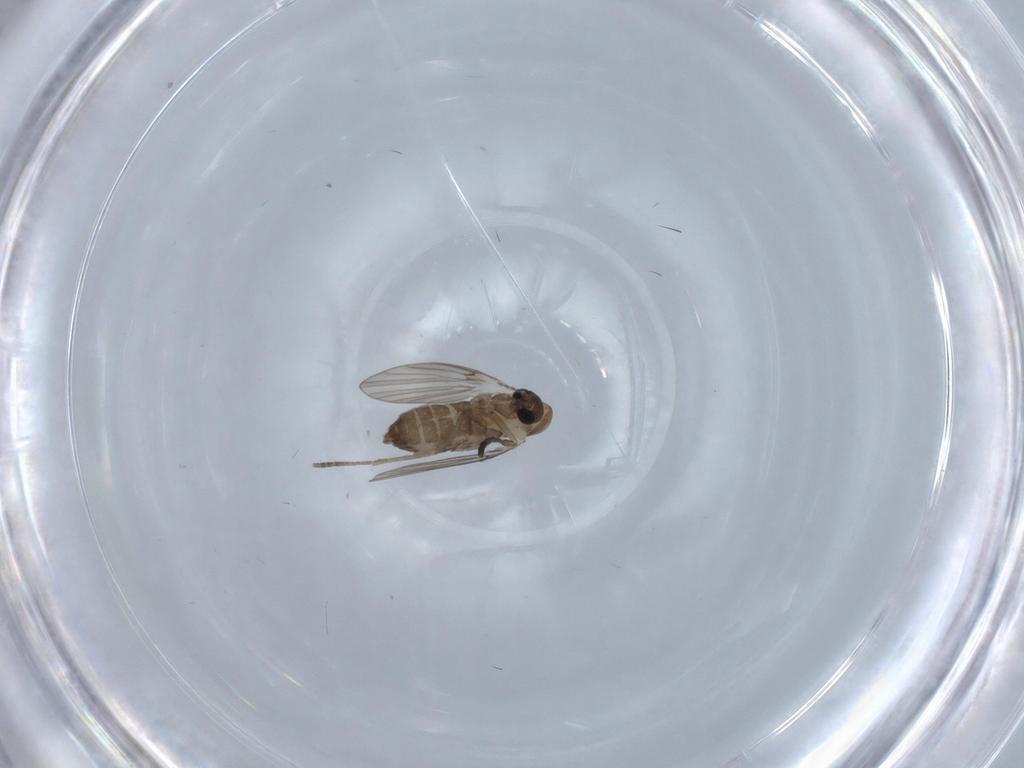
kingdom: Animalia
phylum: Arthropoda
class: Insecta
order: Diptera
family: Psychodidae
